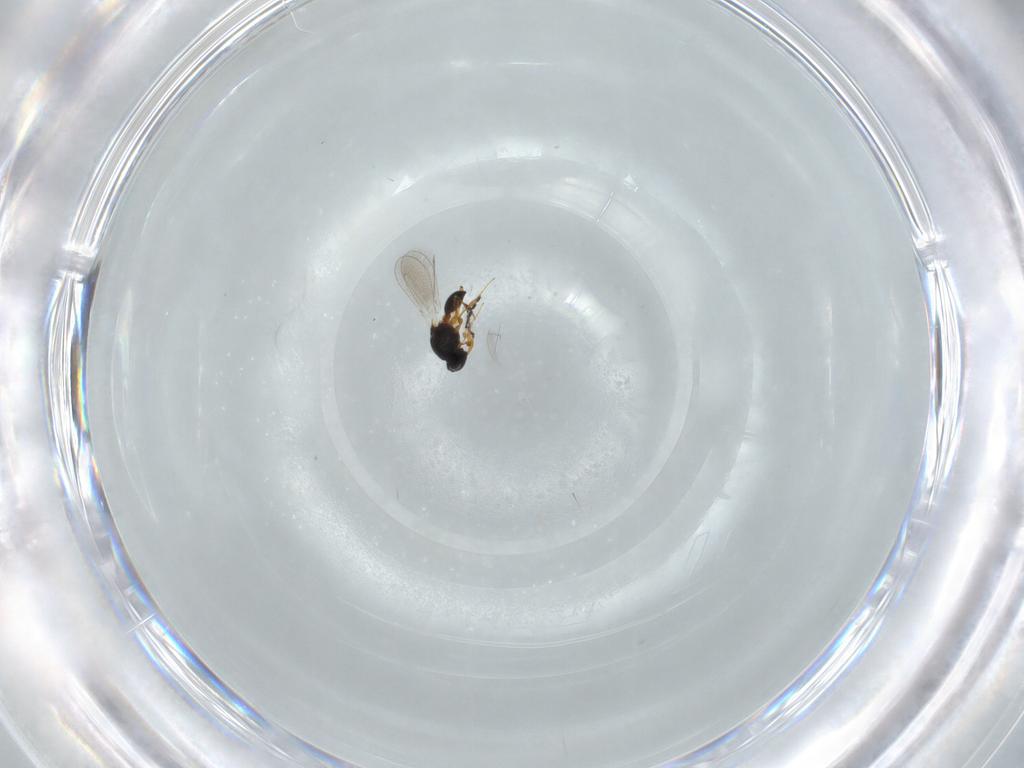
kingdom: Animalia
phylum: Arthropoda
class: Insecta
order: Hymenoptera
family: Platygastridae
